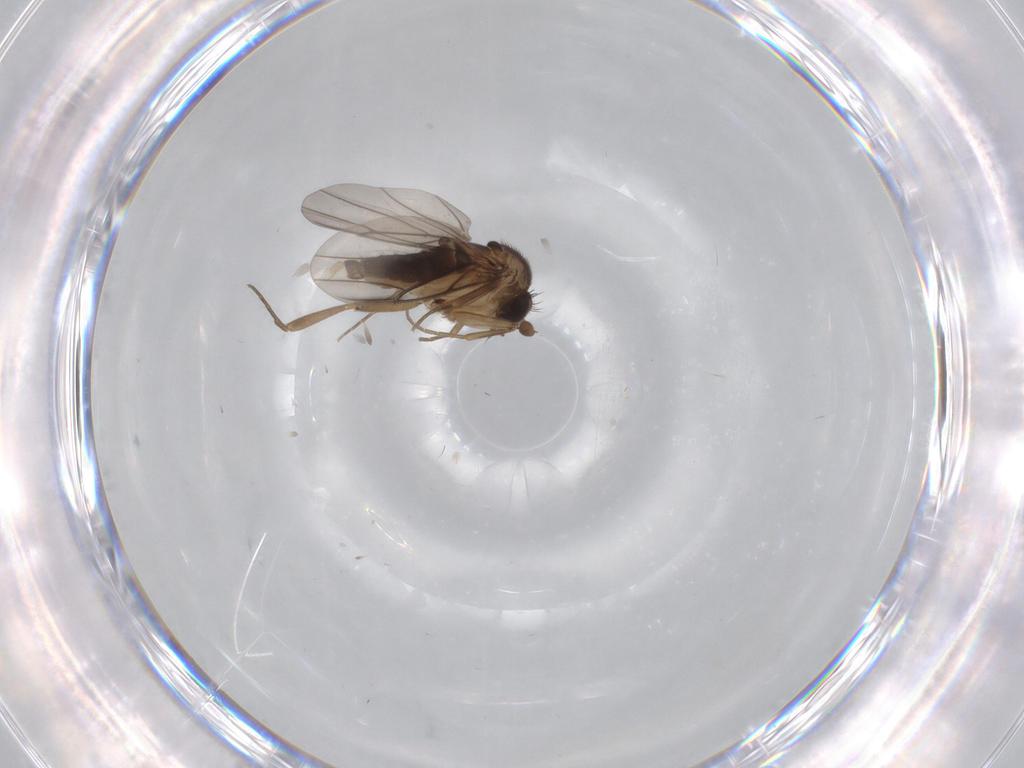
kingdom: Animalia
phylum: Arthropoda
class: Insecta
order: Diptera
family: Phoridae
